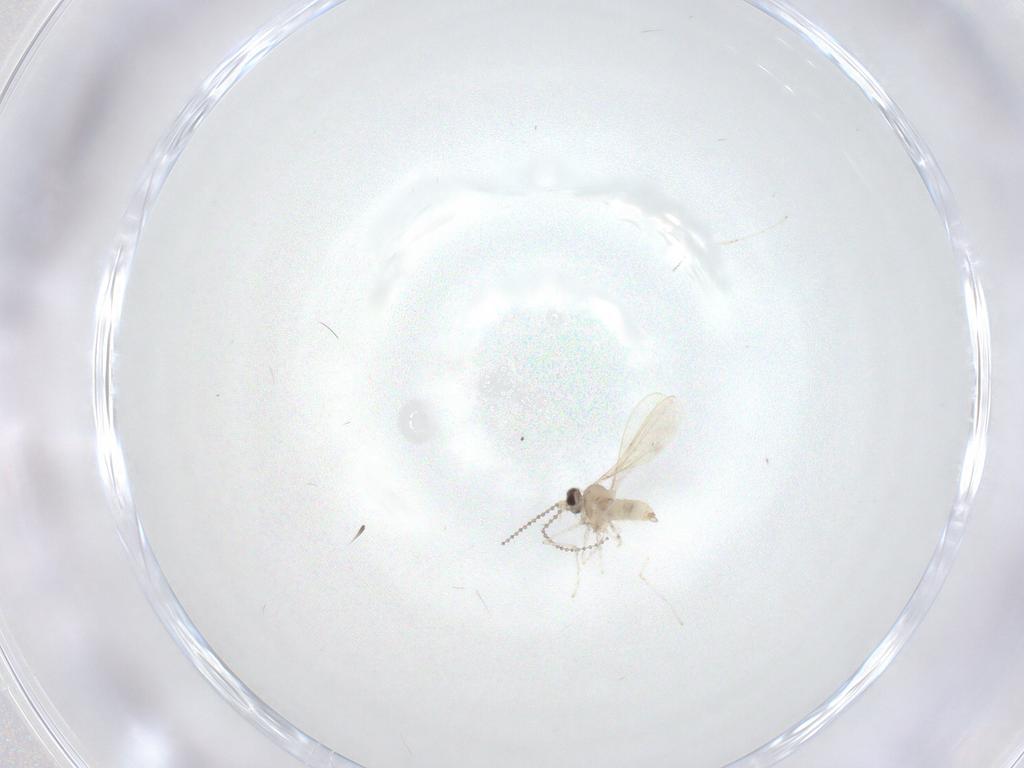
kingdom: Animalia
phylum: Arthropoda
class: Insecta
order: Diptera
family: Cecidomyiidae
